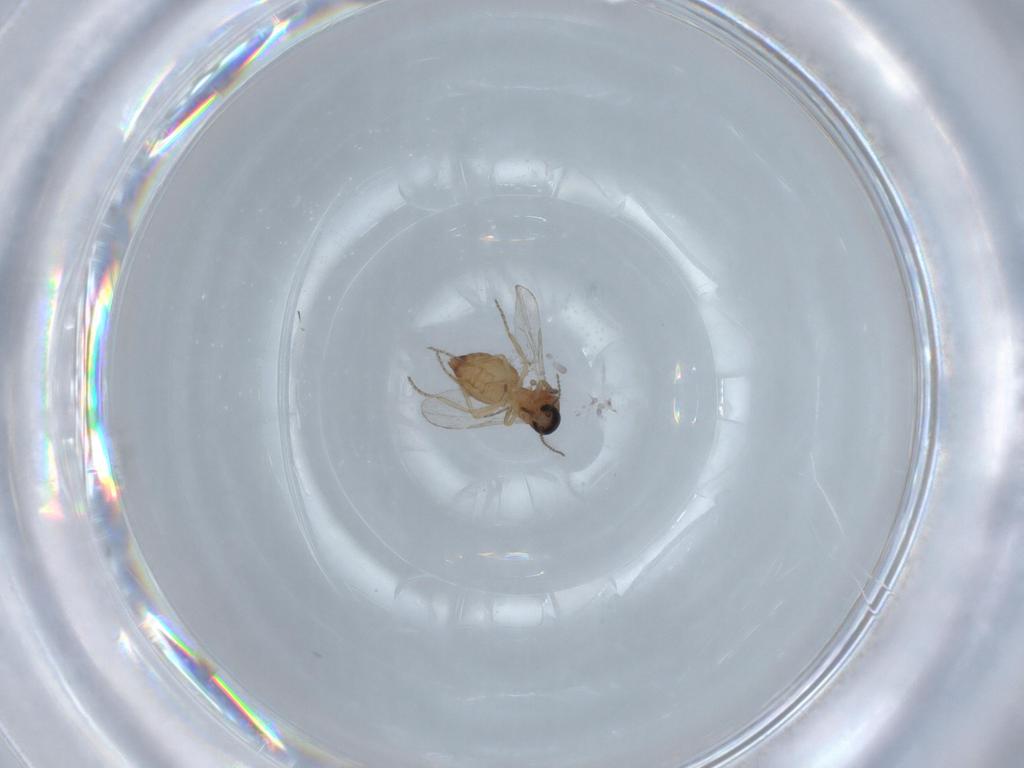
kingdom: Animalia
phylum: Arthropoda
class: Insecta
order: Diptera
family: Ceratopogonidae
